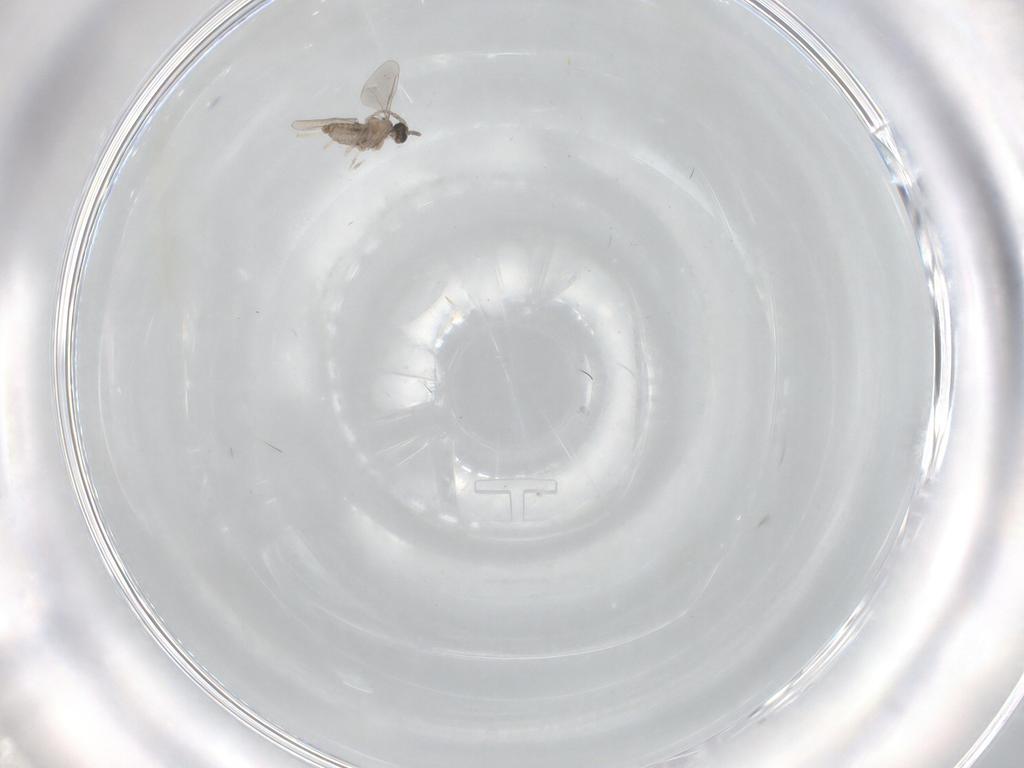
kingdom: Animalia
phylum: Arthropoda
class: Insecta
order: Diptera
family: Cecidomyiidae
